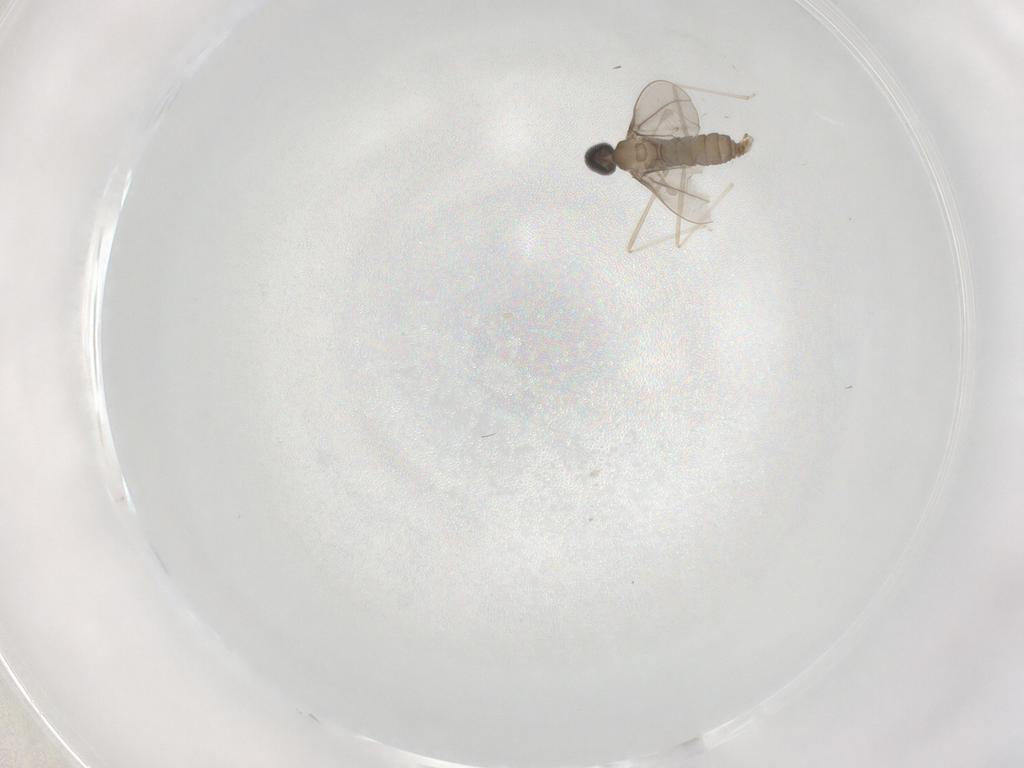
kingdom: Animalia
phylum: Arthropoda
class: Insecta
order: Diptera
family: Cecidomyiidae
